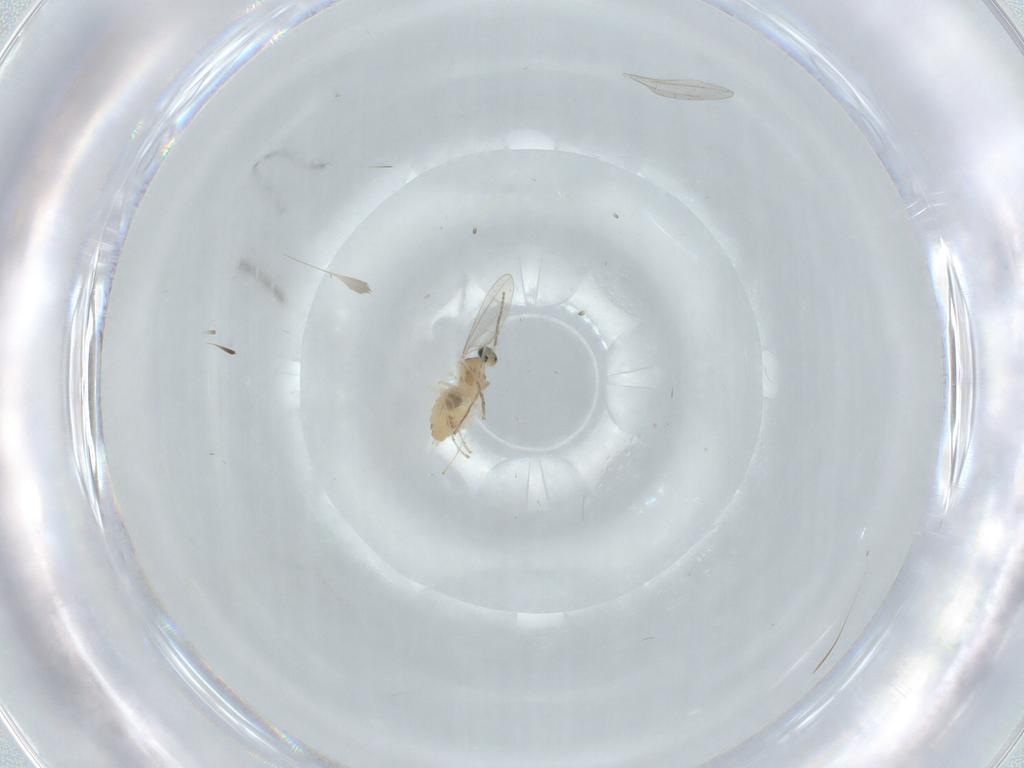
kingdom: Animalia
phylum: Arthropoda
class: Insecta
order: Diptera
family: Cecidomyiidae
